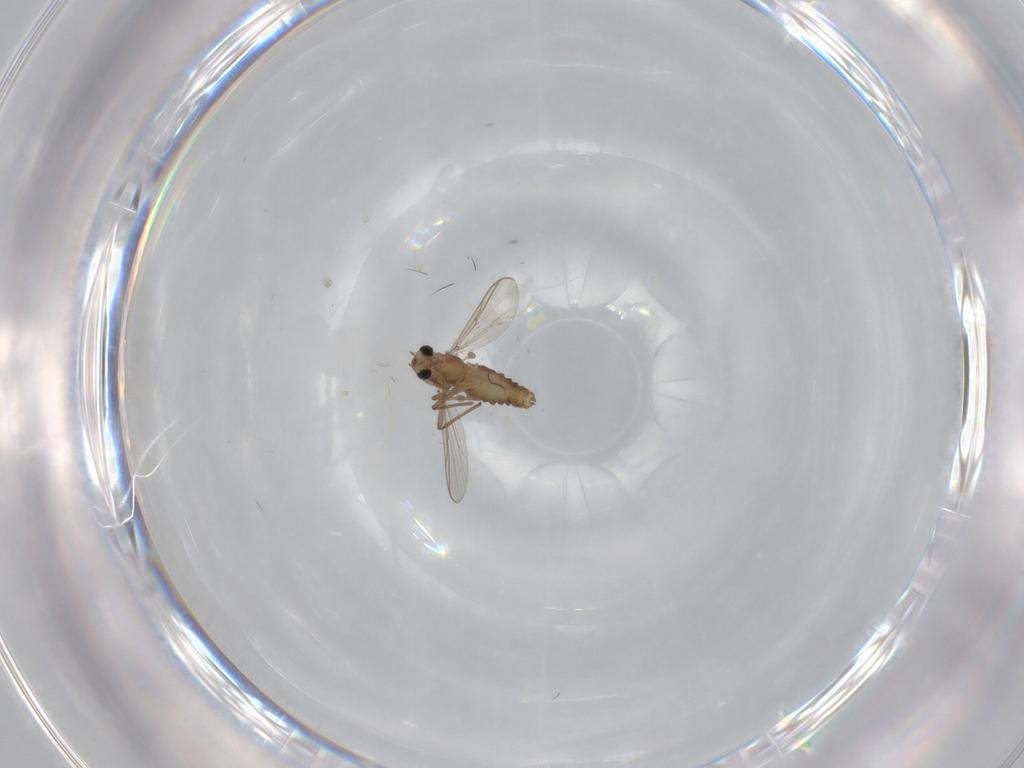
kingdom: Animalia
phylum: Arthropoda
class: Insecta
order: Diptera
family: Chironomidae
